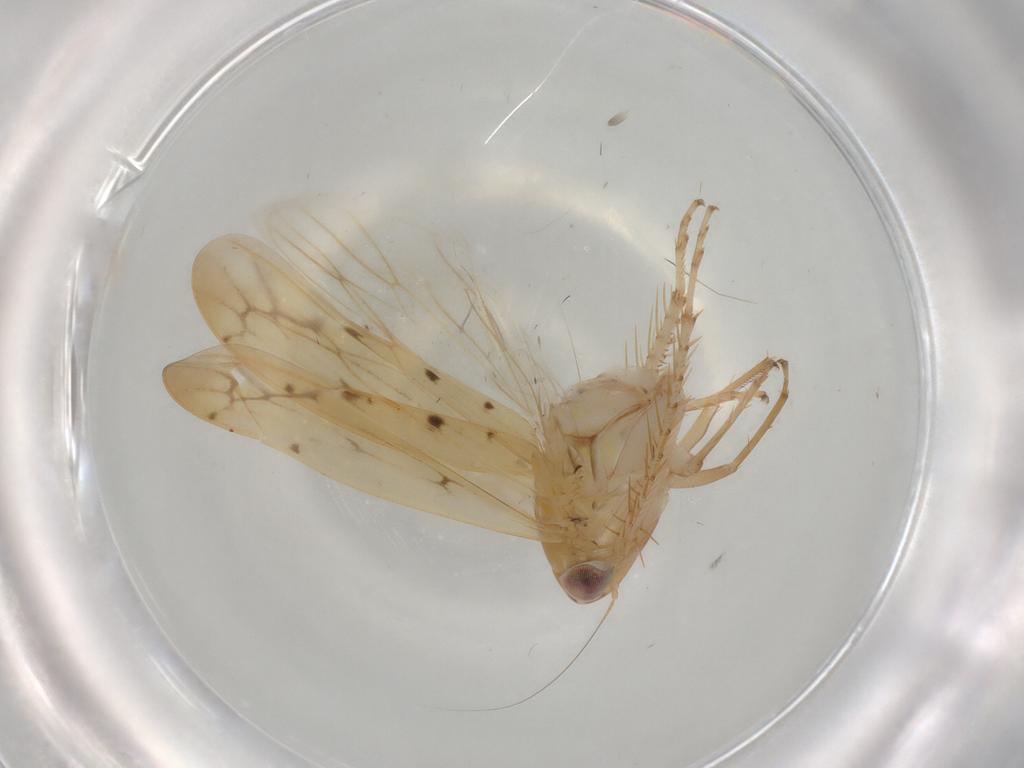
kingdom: Animalia
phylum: Arthropoda
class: Insecta
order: Hemiptera
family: Cicadellidae
